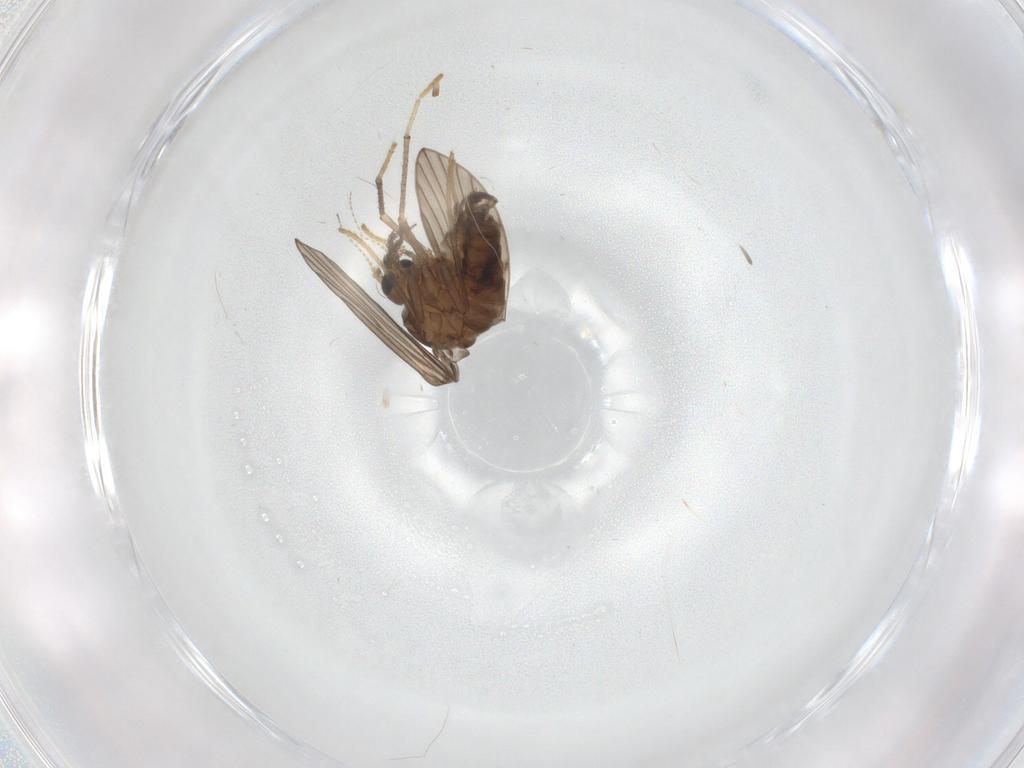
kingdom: Animalia
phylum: Arthropoda
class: Insecta
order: Diptera
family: Psychodidae
